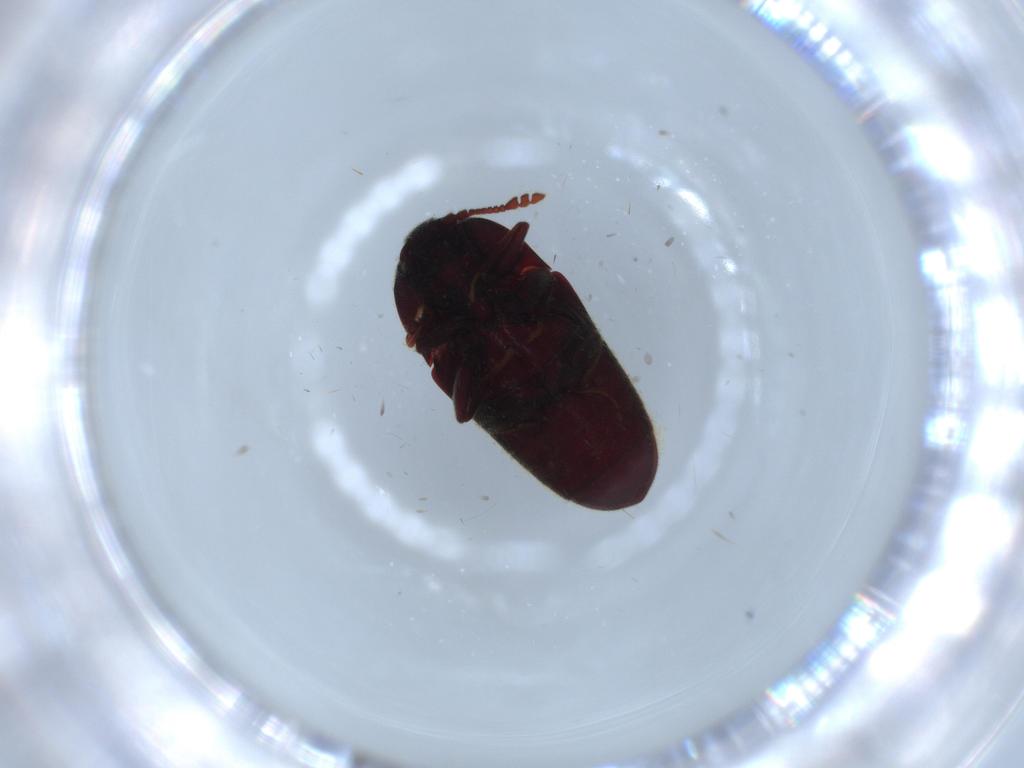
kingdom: Animalia
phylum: Arthropoda
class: Insecta
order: Coleoptera
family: Throscidae
